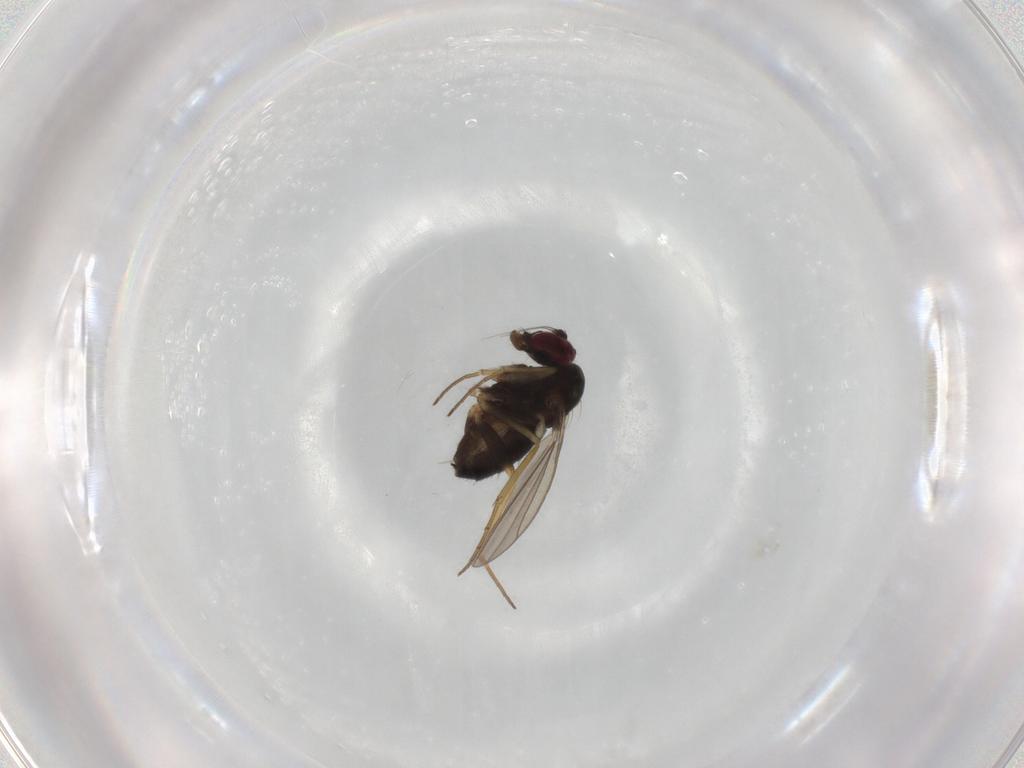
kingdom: Animalia
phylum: Arthropoda
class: Insecta
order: Diptera
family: Dolichopodidae
